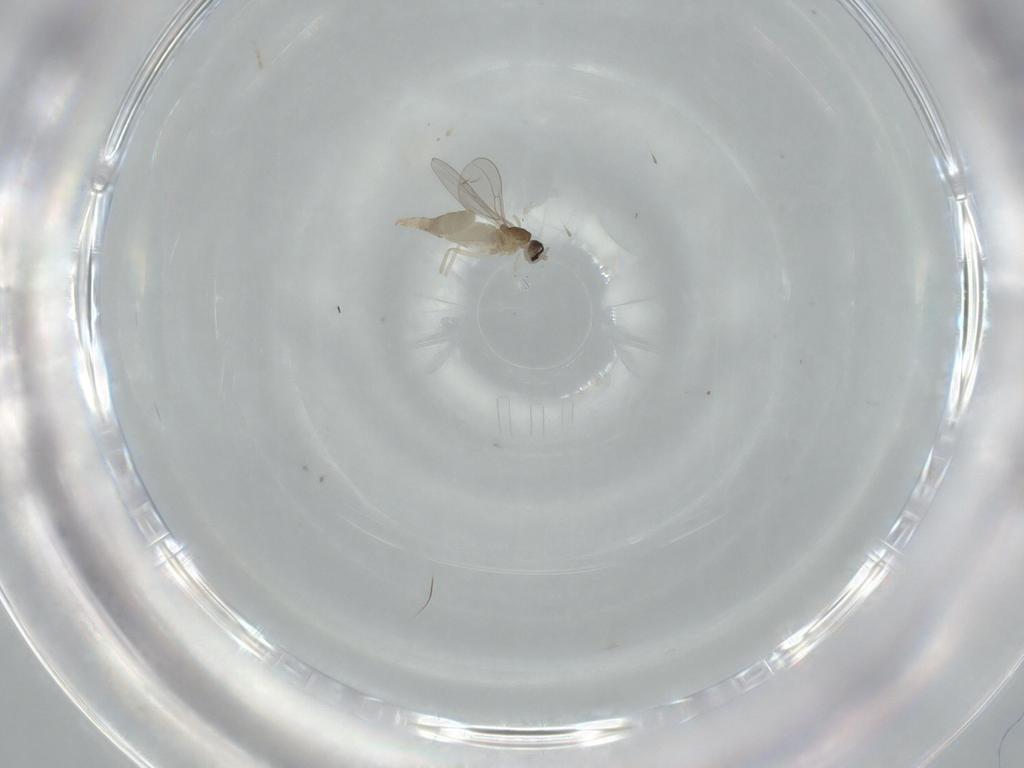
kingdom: Animalia
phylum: Arthropoda
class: Insecta
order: Diptera
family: Cecidomyiidae
